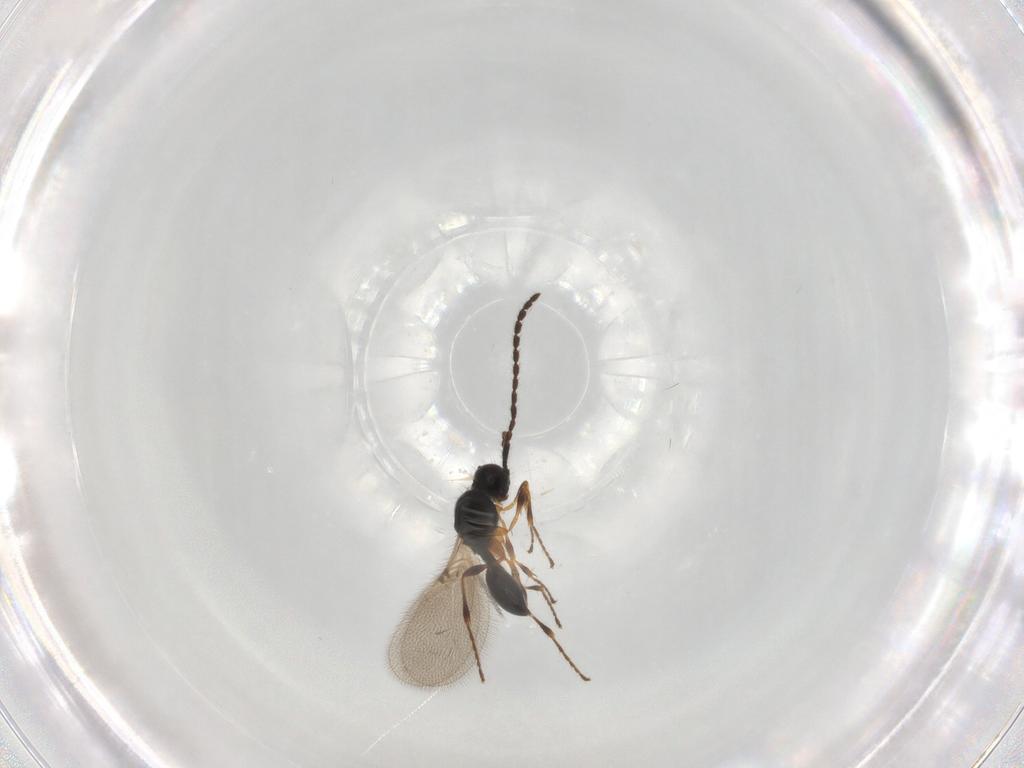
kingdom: Animalia
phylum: Arthropoda
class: Insecta
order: Hymenoptera
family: Diapriidae
